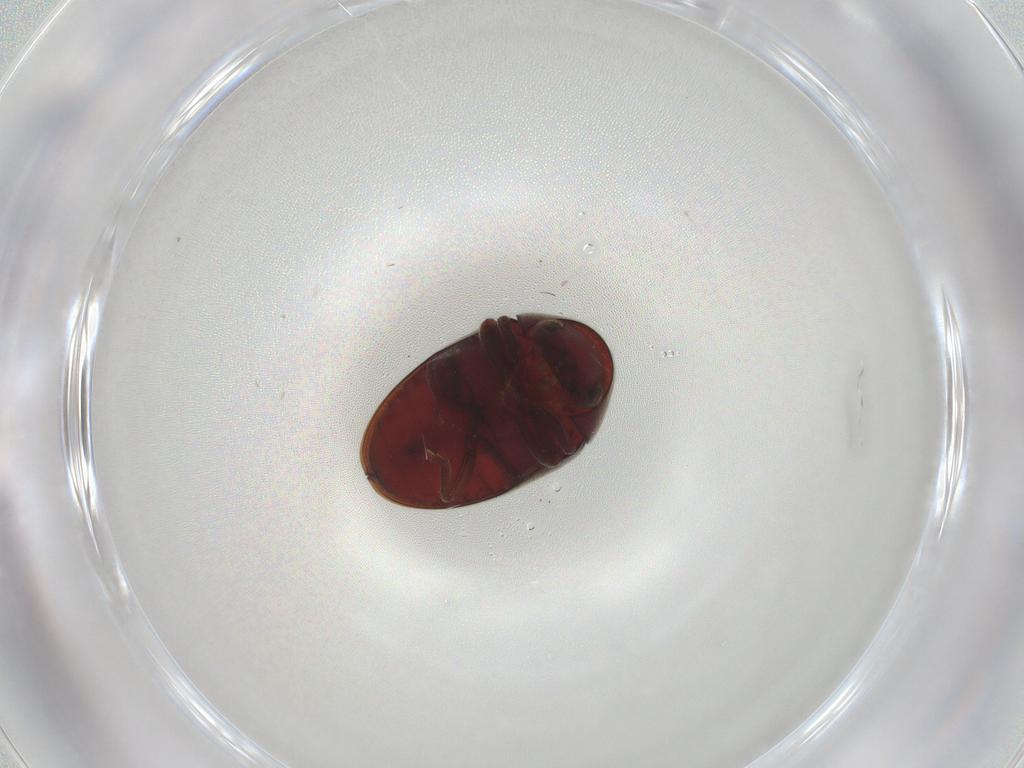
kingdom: Animalia
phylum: Arthropoda
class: Insecta
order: Coleoptera
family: Ptinidae
